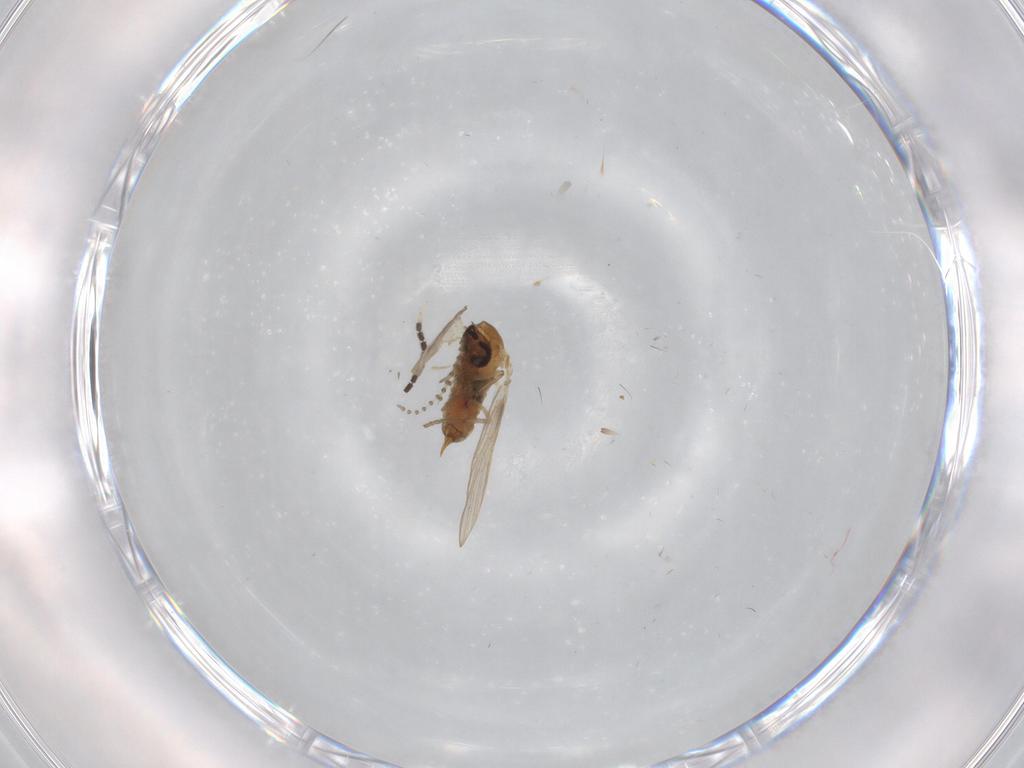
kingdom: Animalia
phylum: Arthropoda
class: Insecta
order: Diptera
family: Psychodidae
